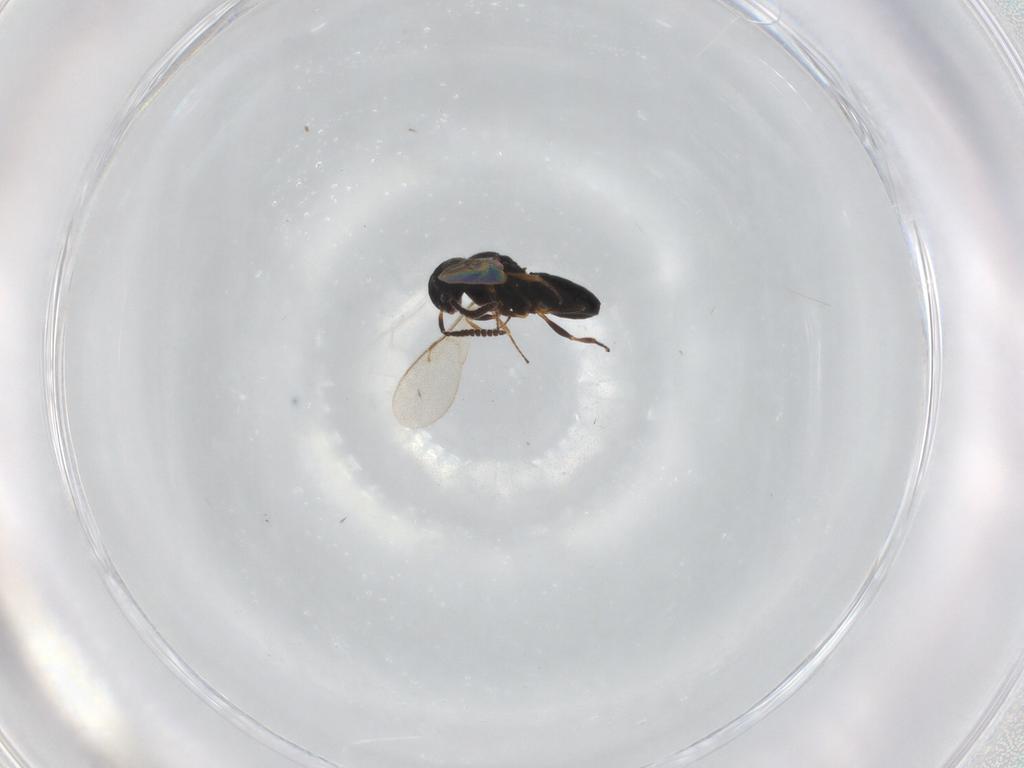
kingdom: Animalia
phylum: Arthropoda
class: Insecta
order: Hymenoptera
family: Scelionidae
